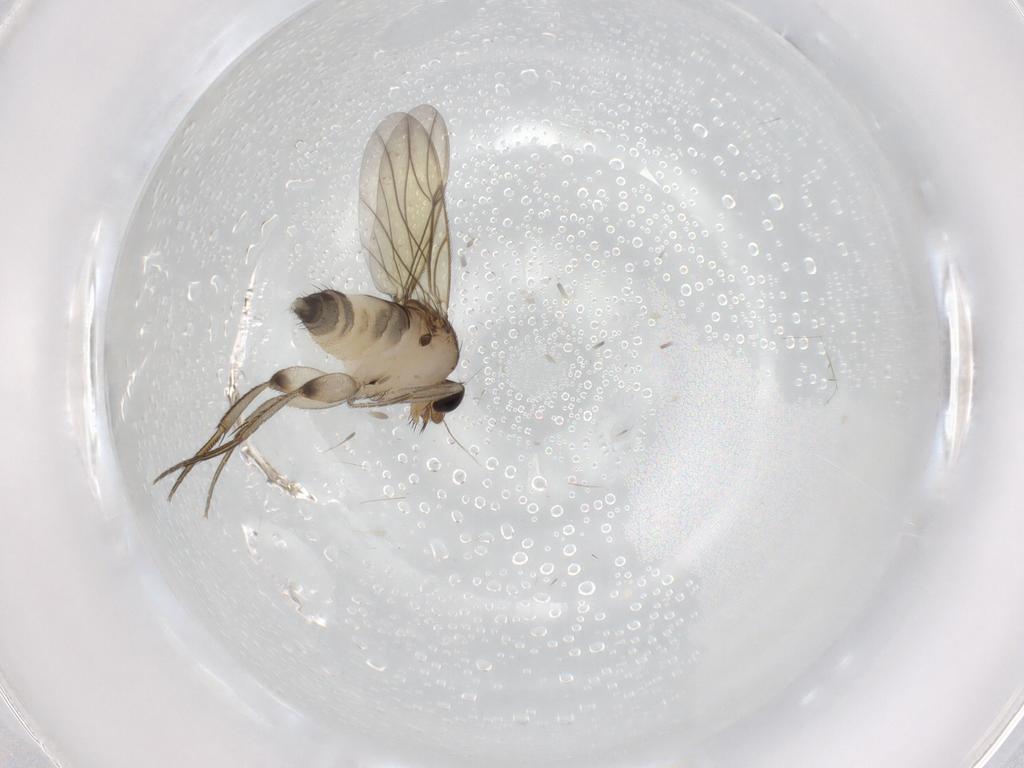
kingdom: Animalia
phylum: Arthropoda
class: Insecta
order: Diptera
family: Phoridae
